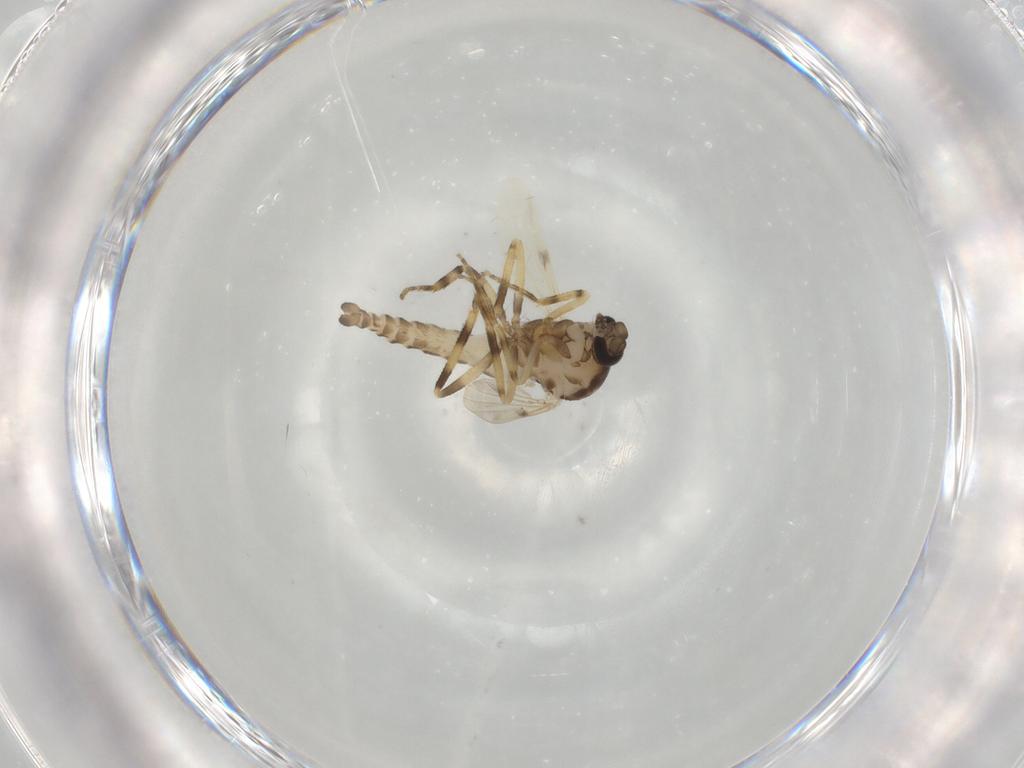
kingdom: Animalia
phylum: Arthropoda
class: Insecta
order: Diptera
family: Ceratopogonidae
